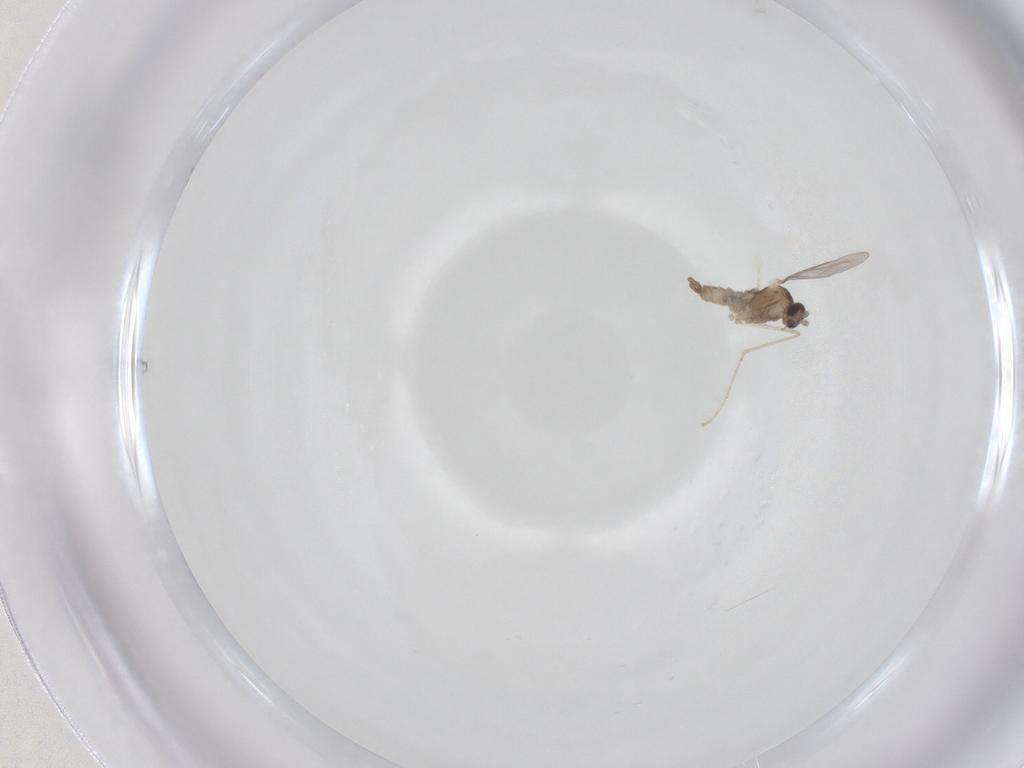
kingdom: Animalia
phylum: Arthropoda
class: Insecta
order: Diptera
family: Cecidomyiidae
